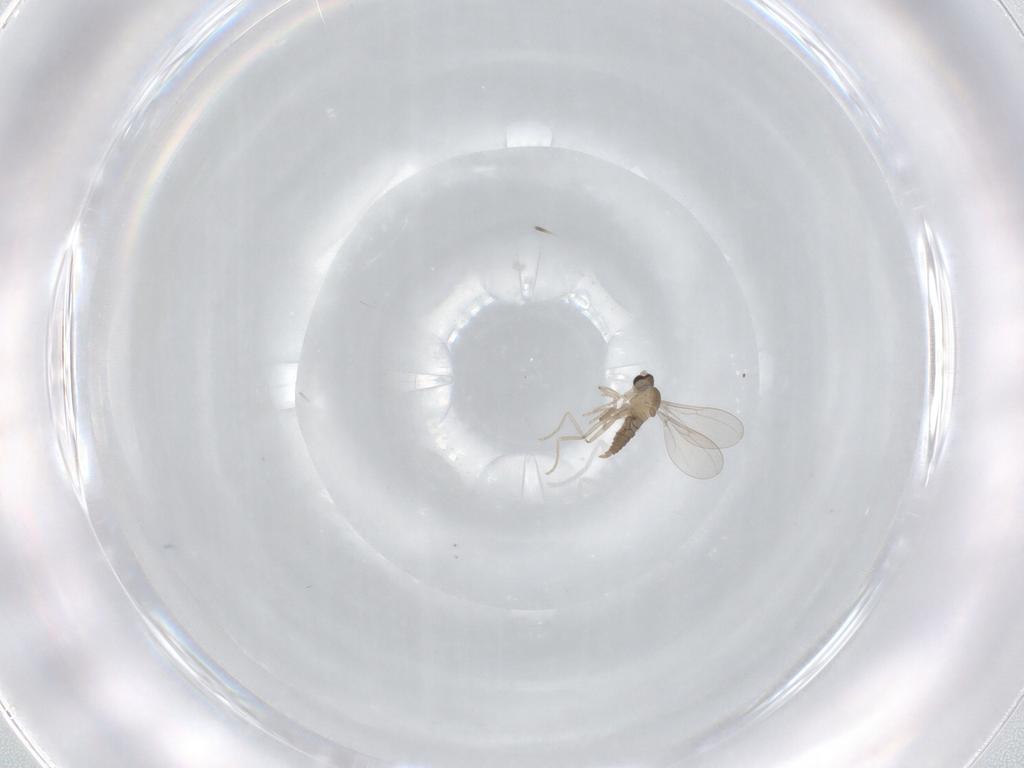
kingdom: Animalia
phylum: Arthropoda
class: Insecta
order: Diptera
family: Cecidomyiidae
